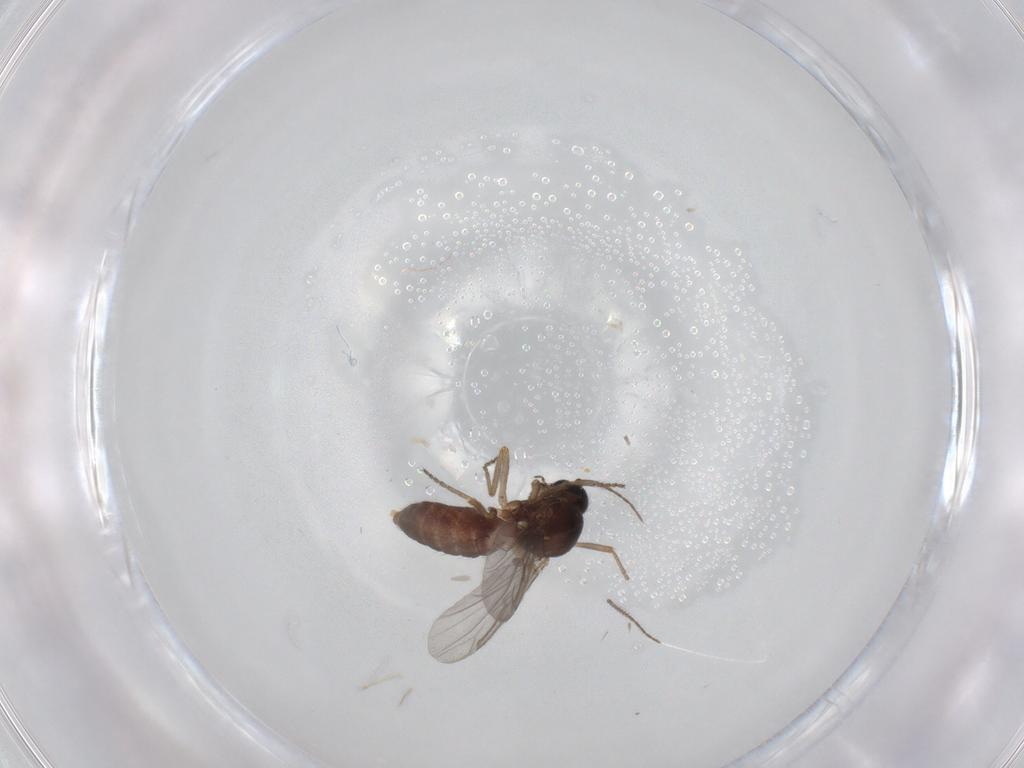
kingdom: Animalia
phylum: Arthropoda
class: Insecta
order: Diptera
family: Ceratopogonidae
